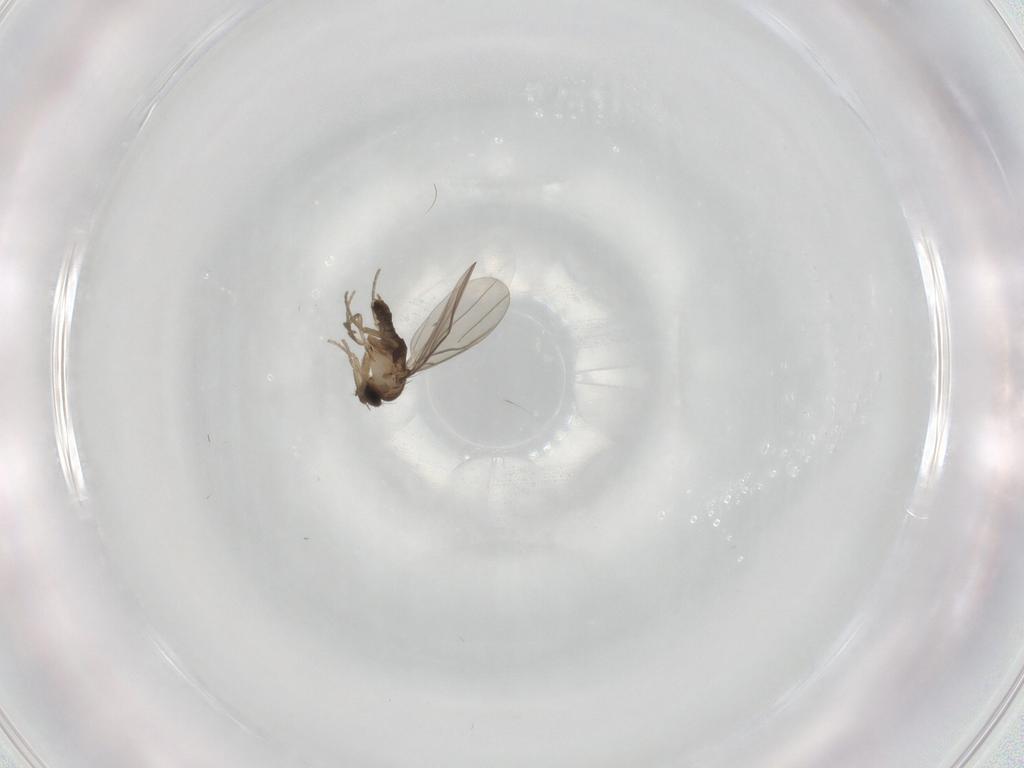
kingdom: Animalia
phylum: Arthropoda
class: Insecta
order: Diptera
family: Phoridae
